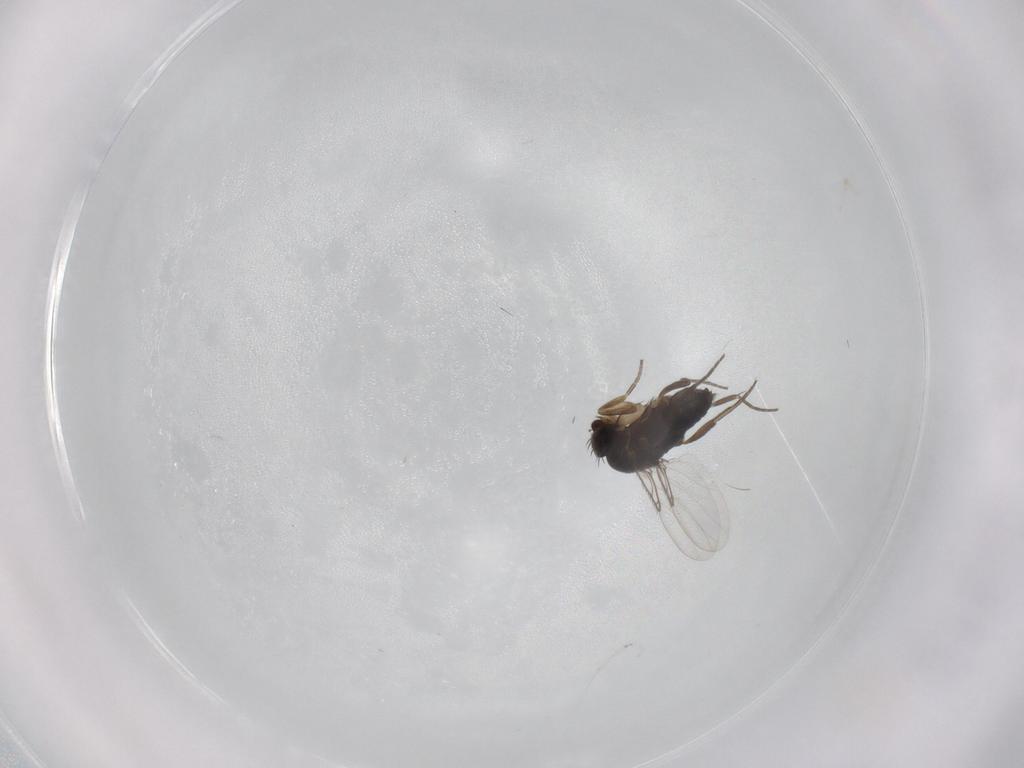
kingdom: Animalia
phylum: Arthropoda
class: Insecta
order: Diptera
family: Phoridae
